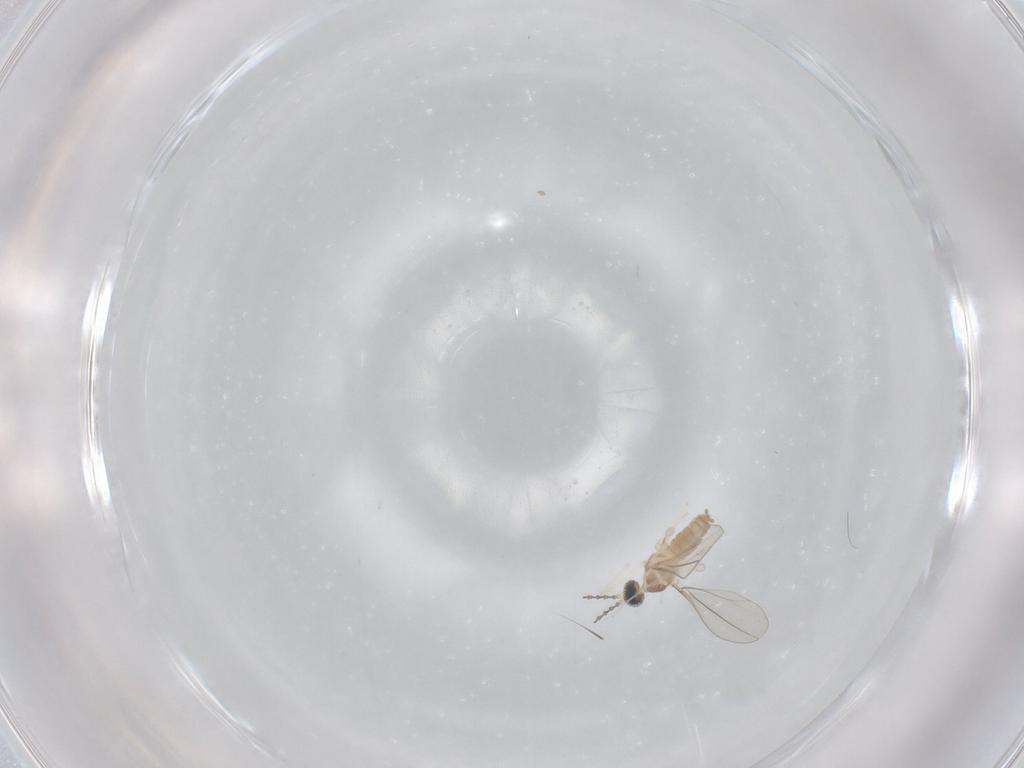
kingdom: Animalia
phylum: Arthropoda
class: Insecta
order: Diptera
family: Cecidomyiidae
